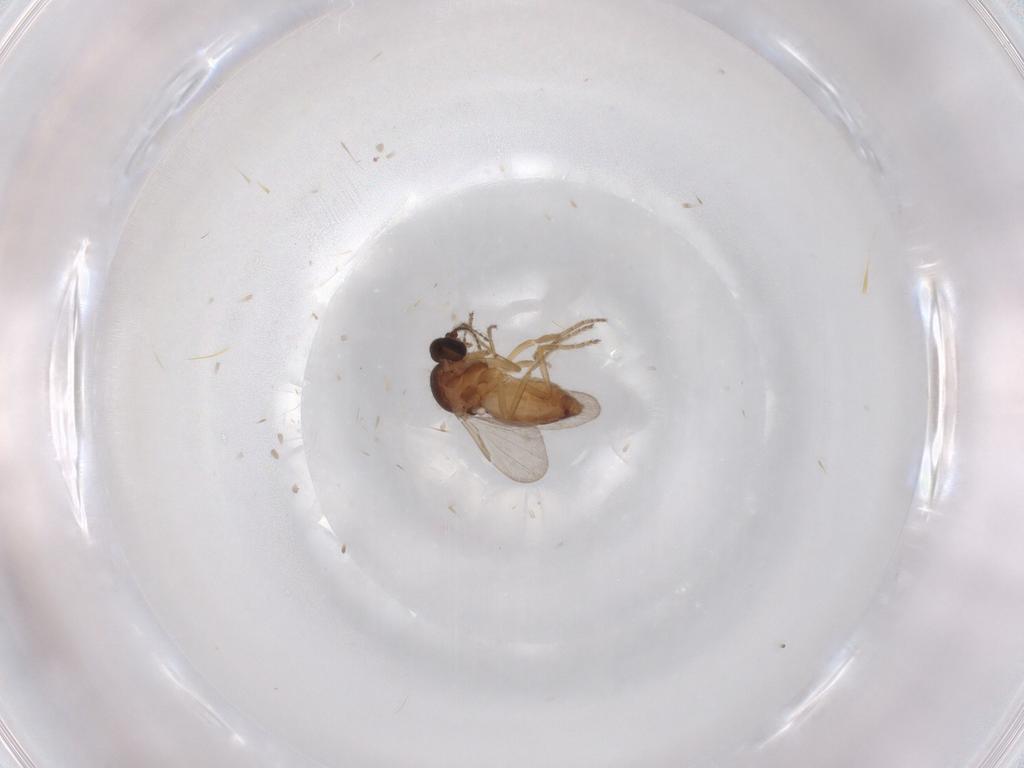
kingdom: Animalia
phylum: Arthropoda
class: Insecta
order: Diptera
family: Ceratopogonidae
